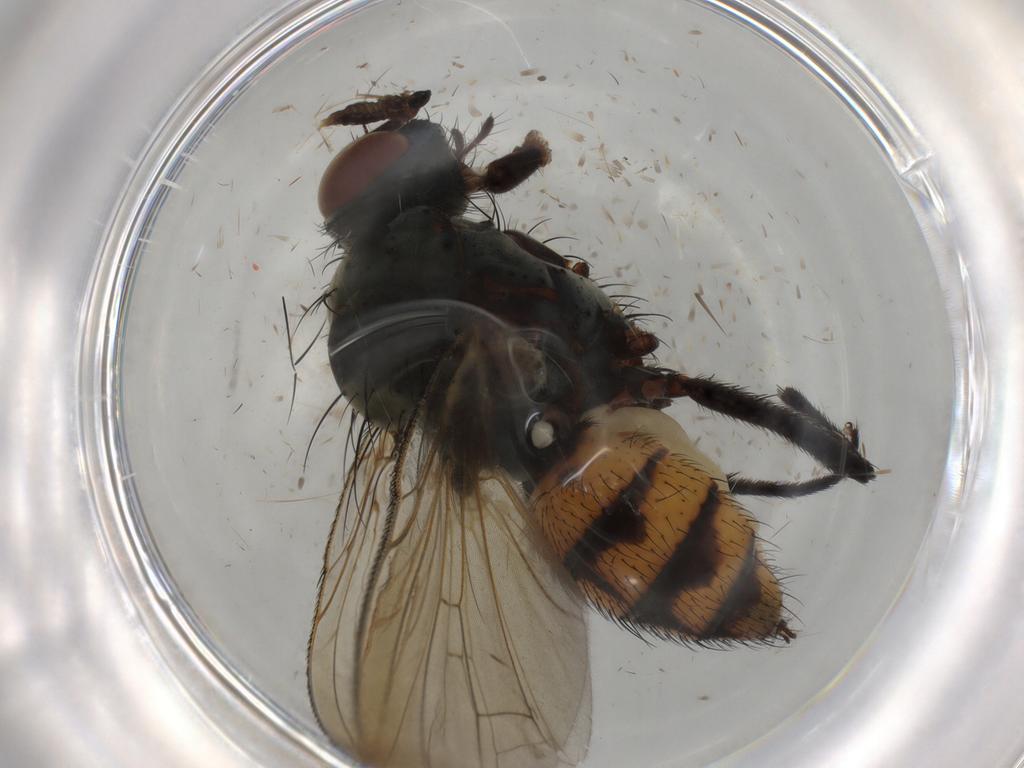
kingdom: Animalia
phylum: Arthropoda
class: Insecta
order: Diptera
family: Anthomyiidae
